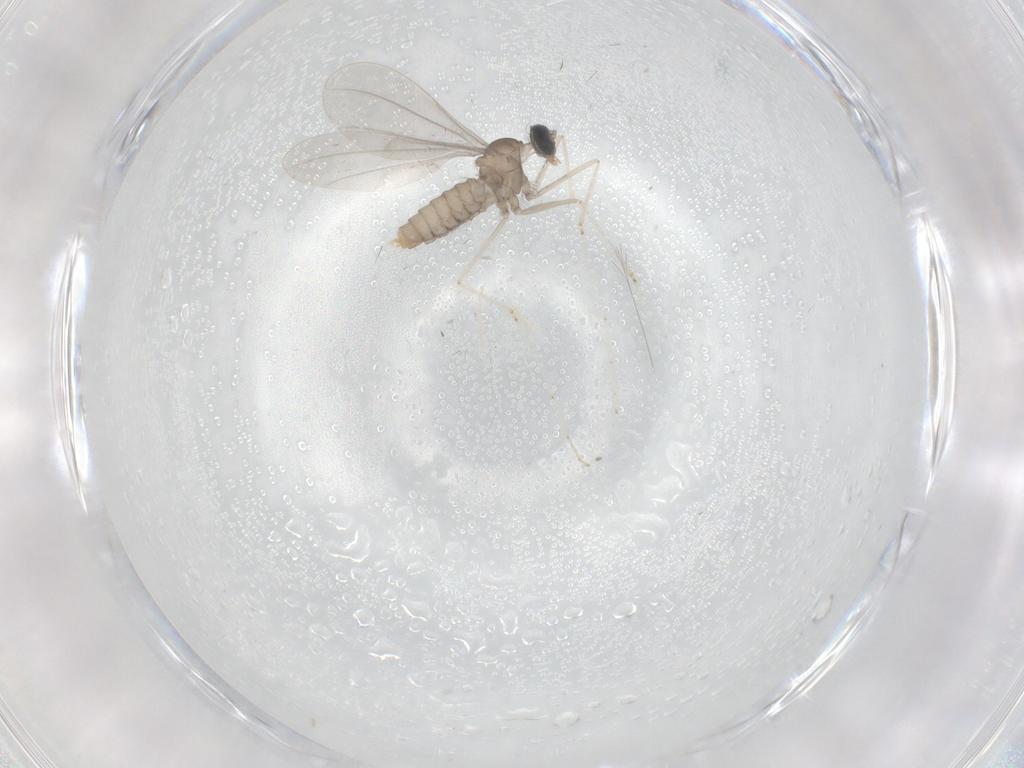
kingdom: Animalia
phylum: Arthropoda
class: Insecta
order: Diptera
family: Cecidomyiidae
